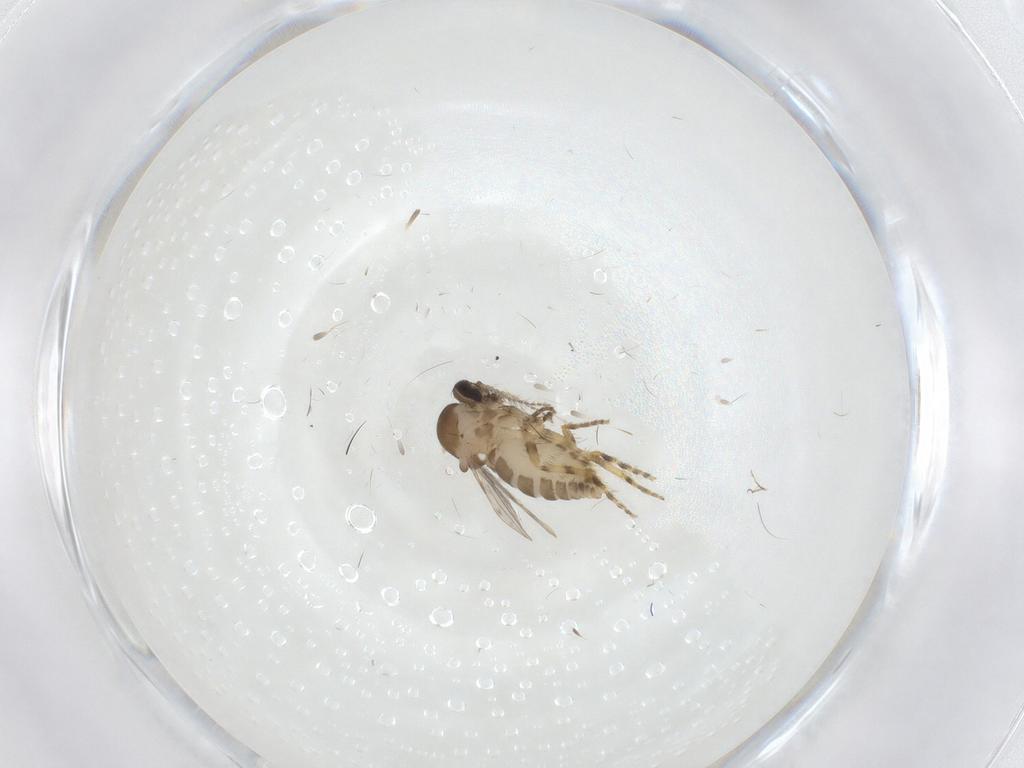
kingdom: Animalia
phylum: Arthropoda
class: Insecta
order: Diptera
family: Ceratopogonidae
